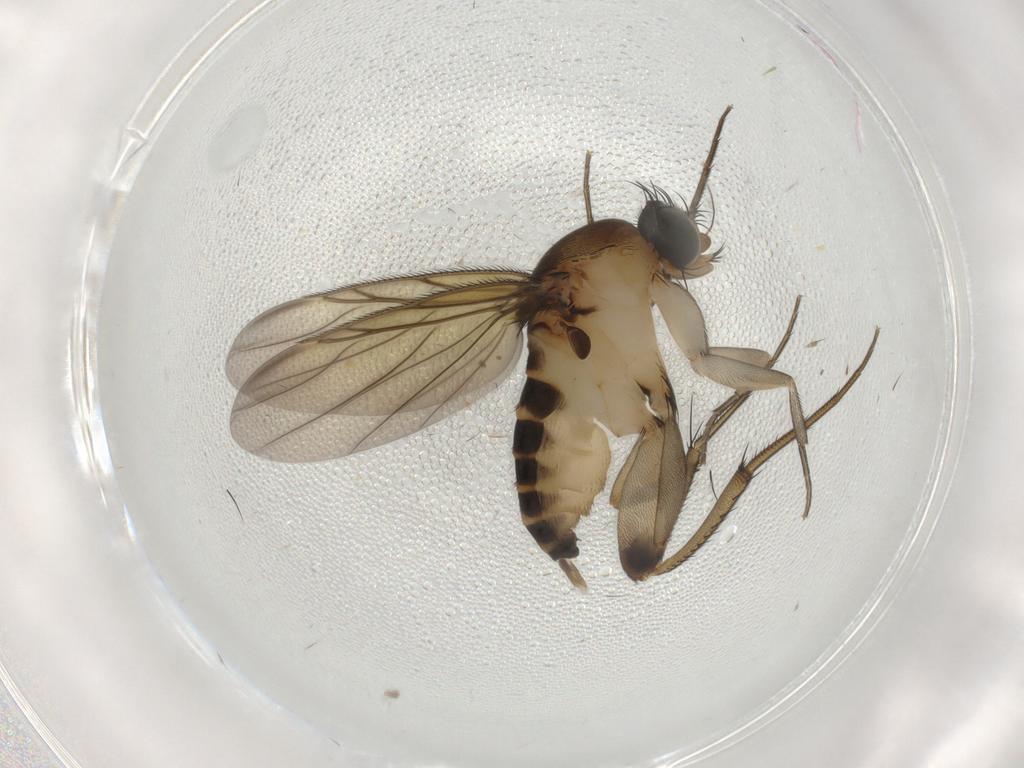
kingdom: Animalia
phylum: Arthropoda
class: Insecta
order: Diptera
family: Cecidomyiidae
